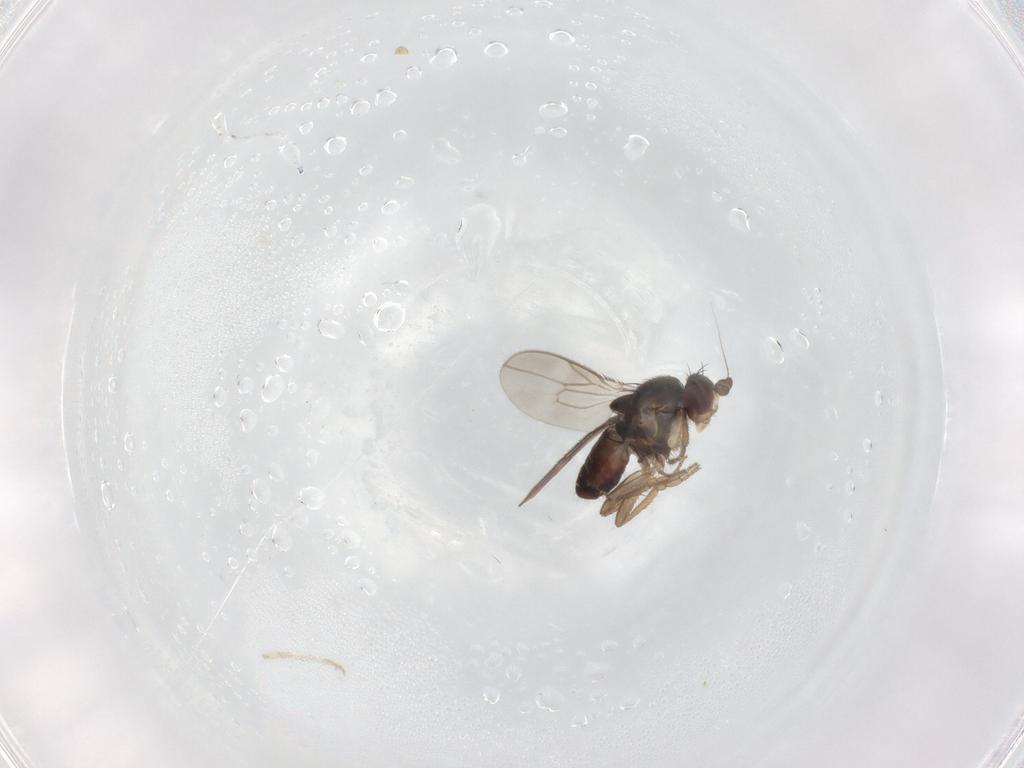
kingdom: Animalia
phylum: Arthropoda
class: Insecta
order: Diptera
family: Sphaeroceridae
